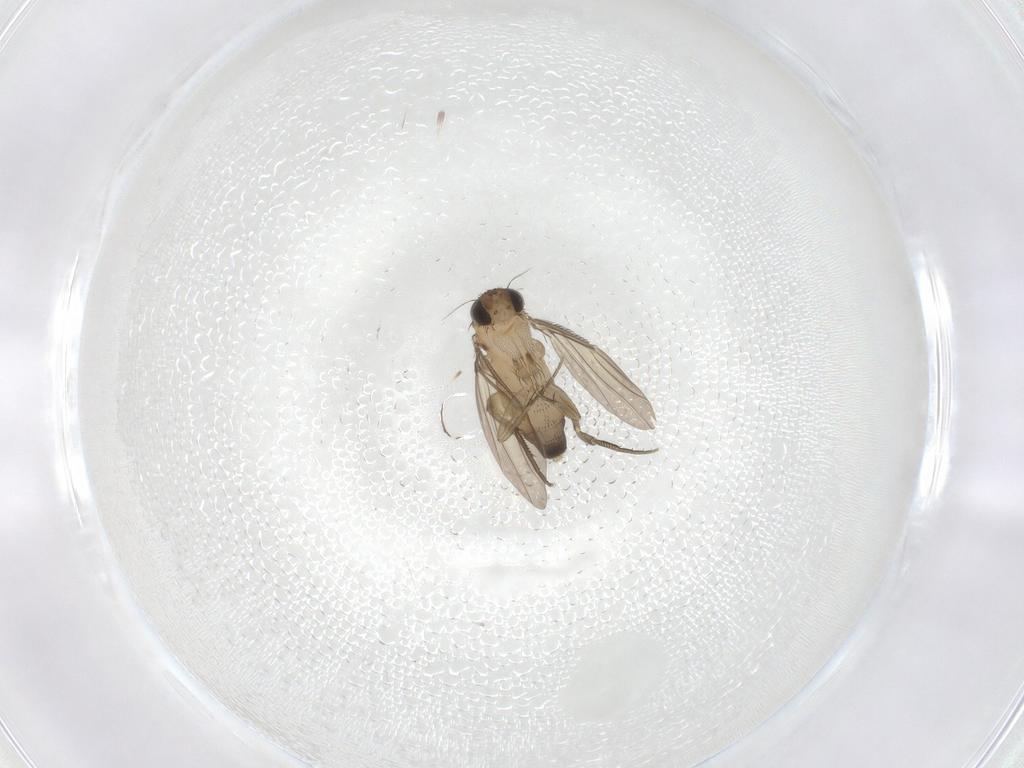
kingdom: Animalia
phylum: Arthropoda
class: Insecta
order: Diptera
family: Phoridae
